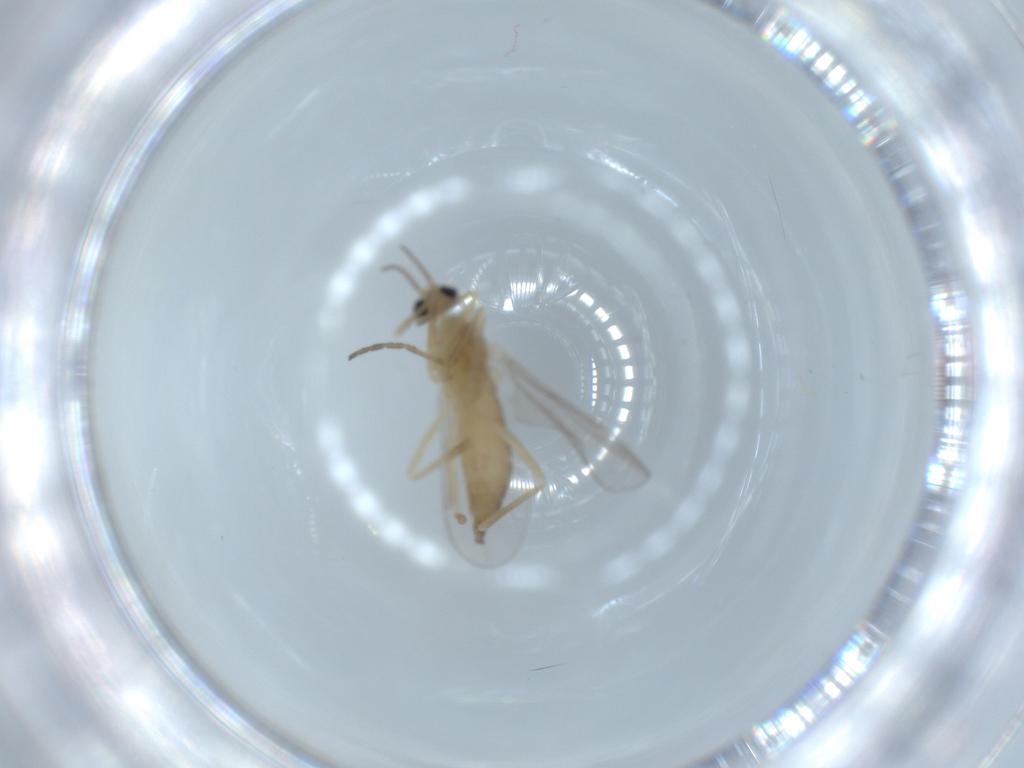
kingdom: Animalia
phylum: Arthropoda
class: Insecta
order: Diptera
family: Cecidomyiidae
